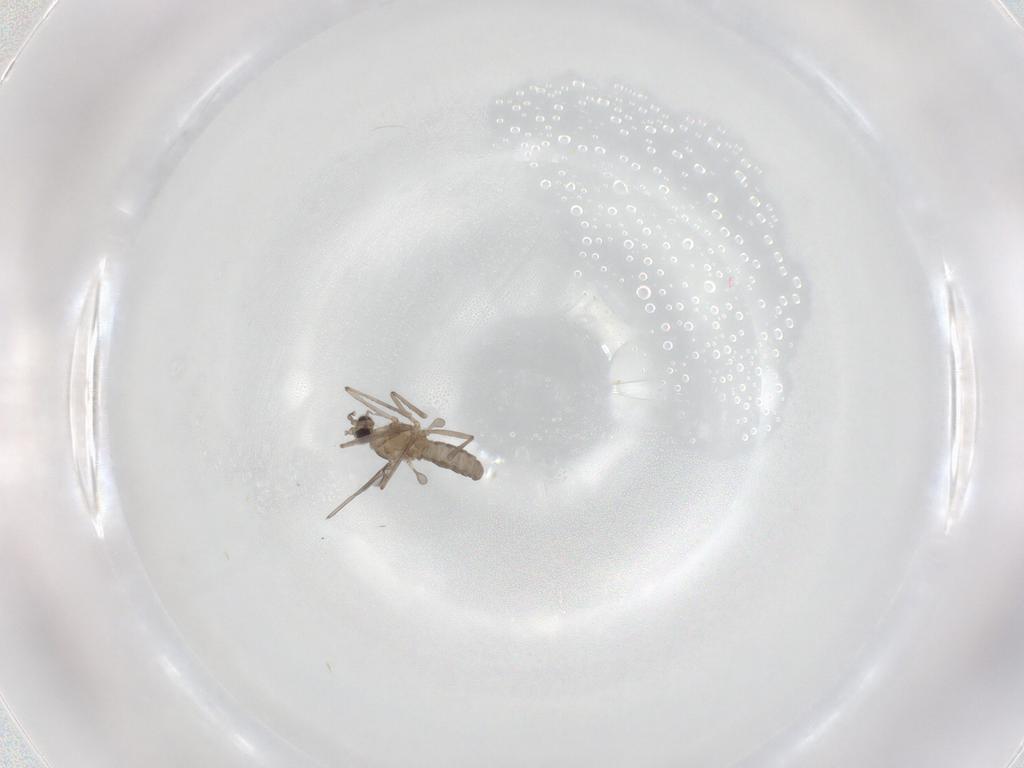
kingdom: Animalia
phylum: Arthropoda
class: Insecta
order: Diptera
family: Cecidomyiidae
